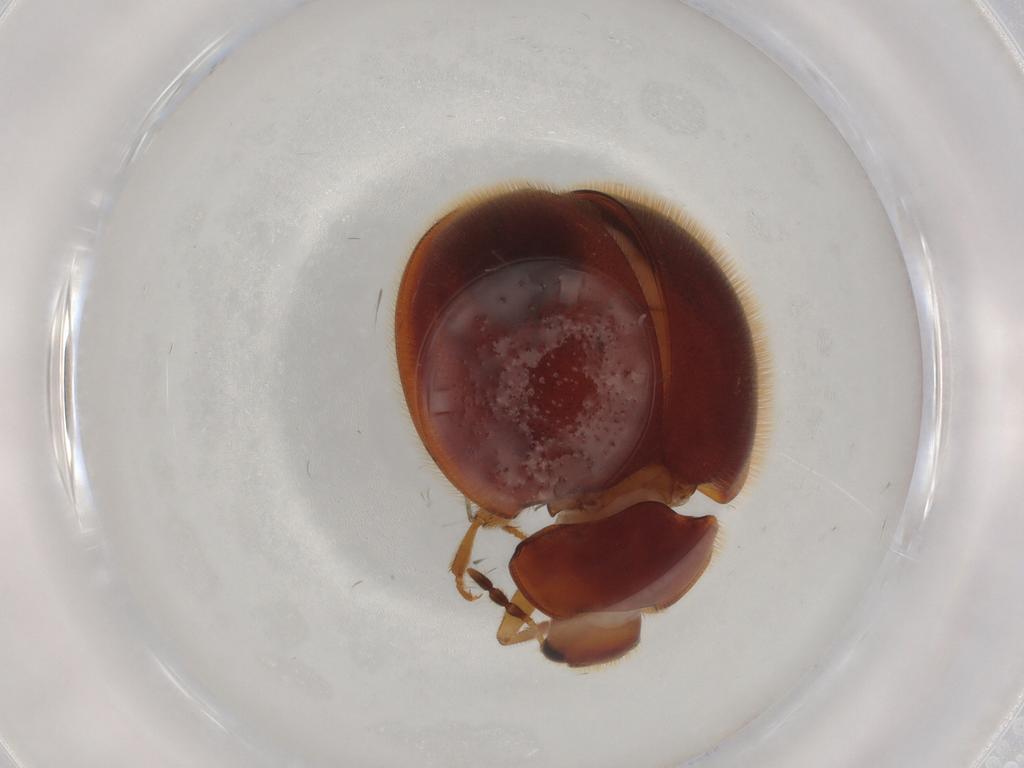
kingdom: Animalia
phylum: Arthropoda
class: Insecta
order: Coleoptera
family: Anamorphidae
